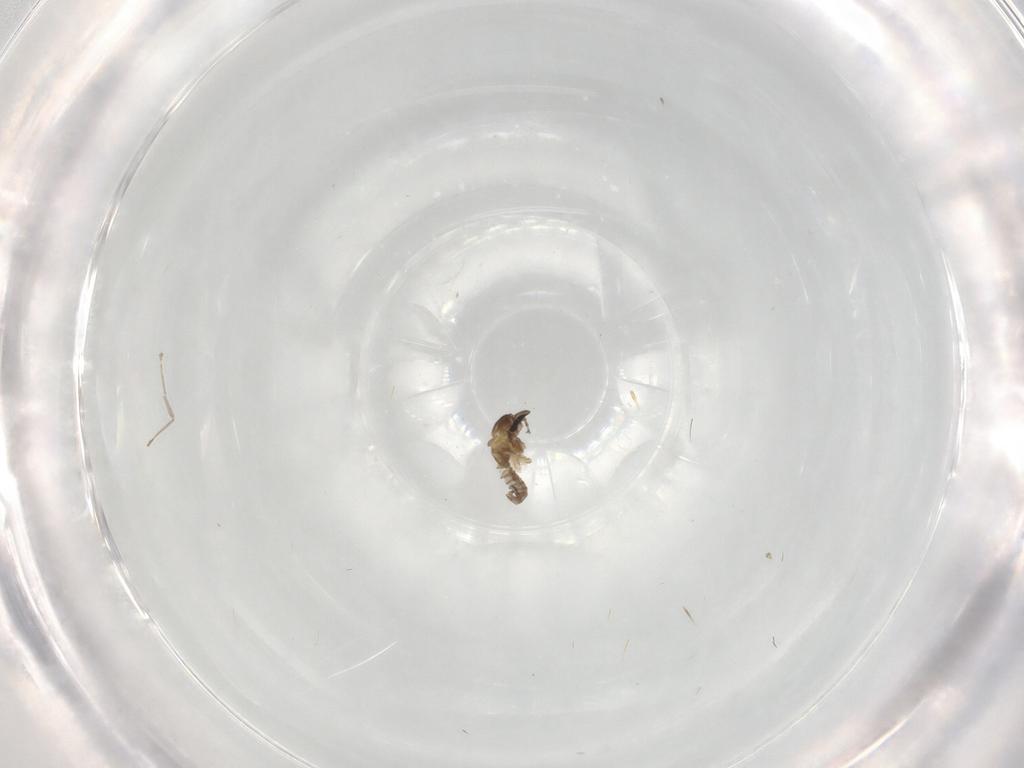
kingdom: Animalia
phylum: Arthropoda
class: Insecta
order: Diptera
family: Cecidomyiidae
